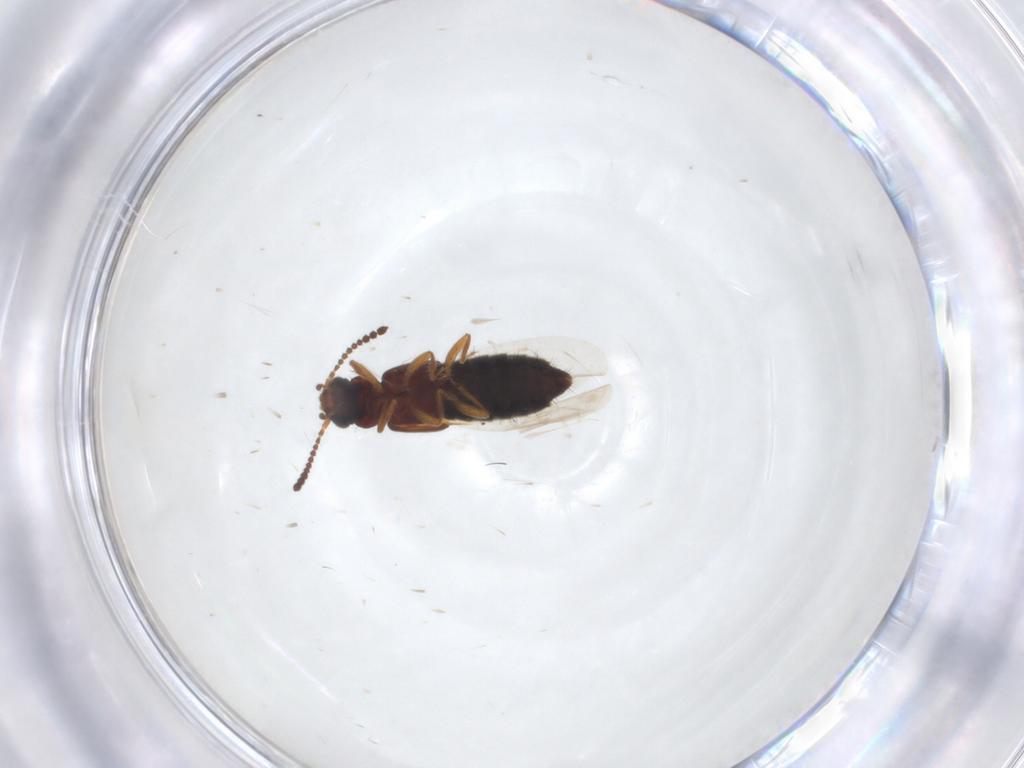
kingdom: Animalia
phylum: Arthropoda
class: Insecta
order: Coleoptera
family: Staphylinidae
